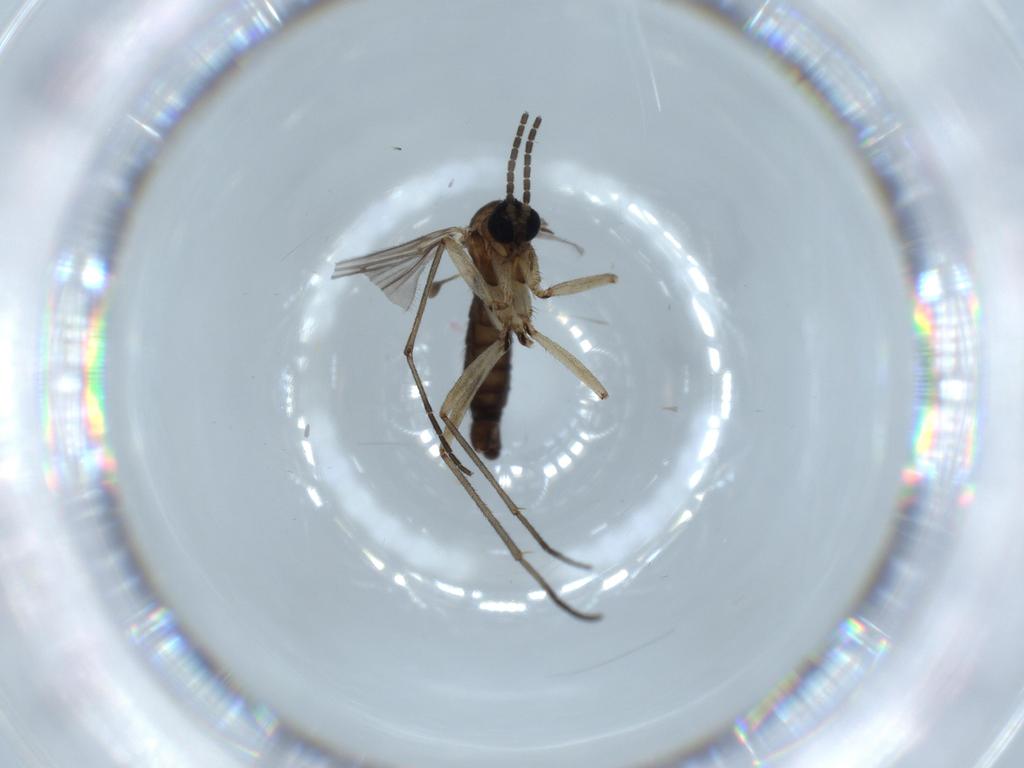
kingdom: Animalia
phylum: Arthropoda
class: Insecta
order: Diptera
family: Sciaridae
